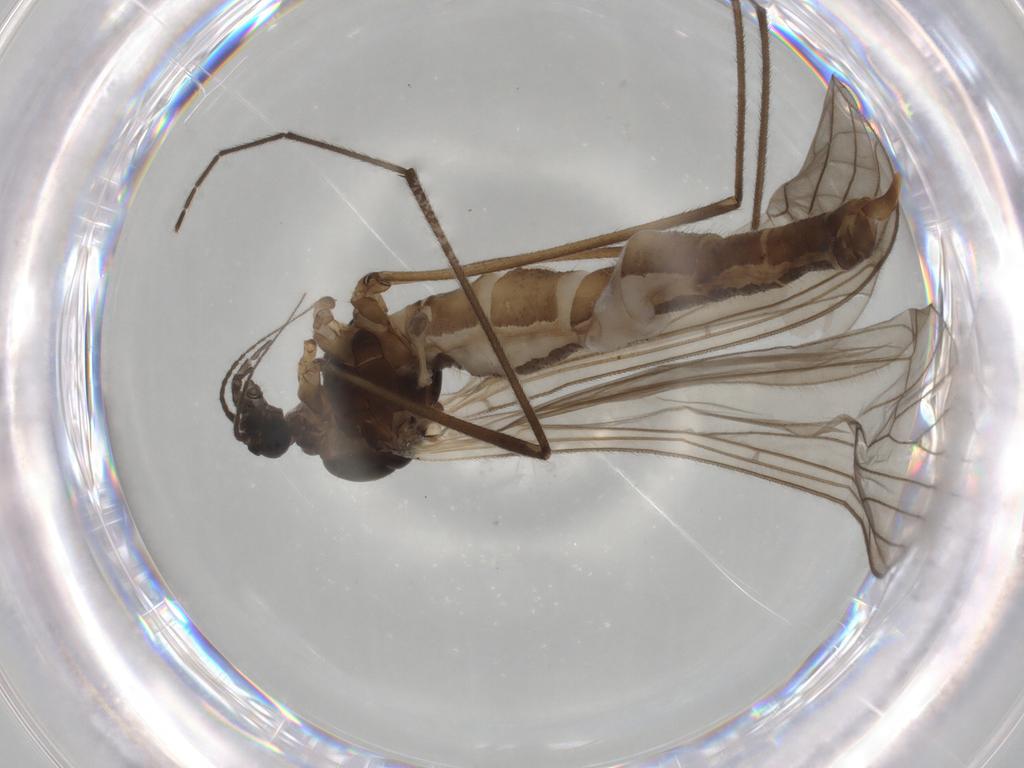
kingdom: Animalia
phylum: Arthropoda
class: Insecta
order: Diptera
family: Trichoceridae
